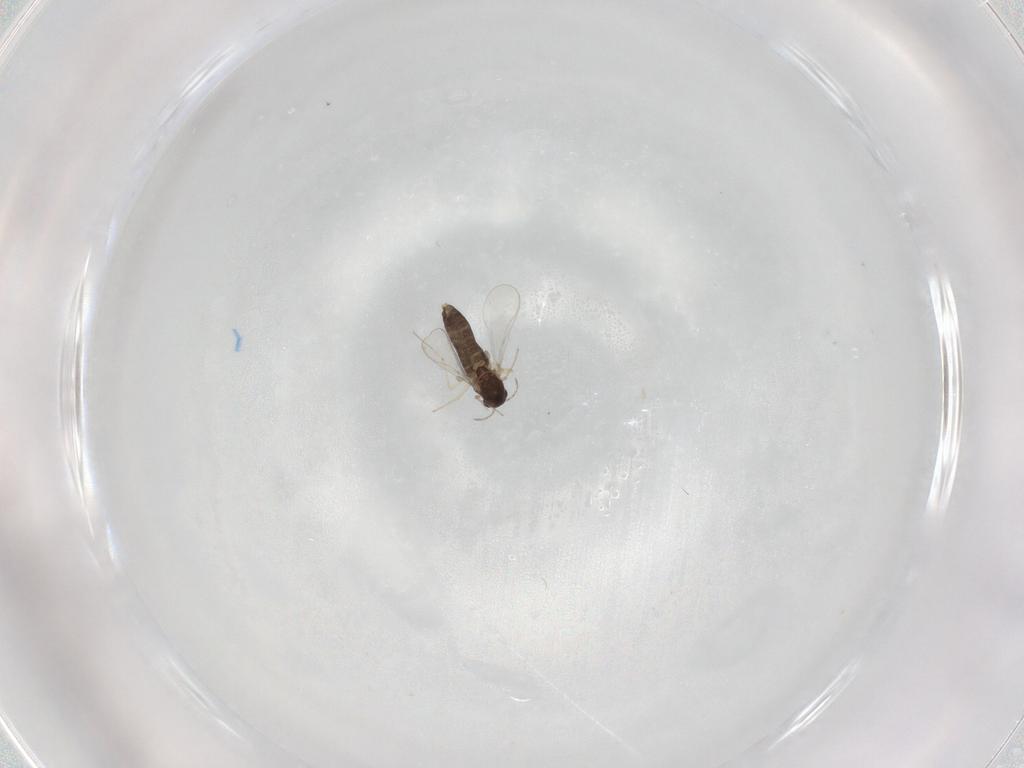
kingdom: Animalia
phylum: Arthropoda
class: Insecta
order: Diptera
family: Chironomidae
